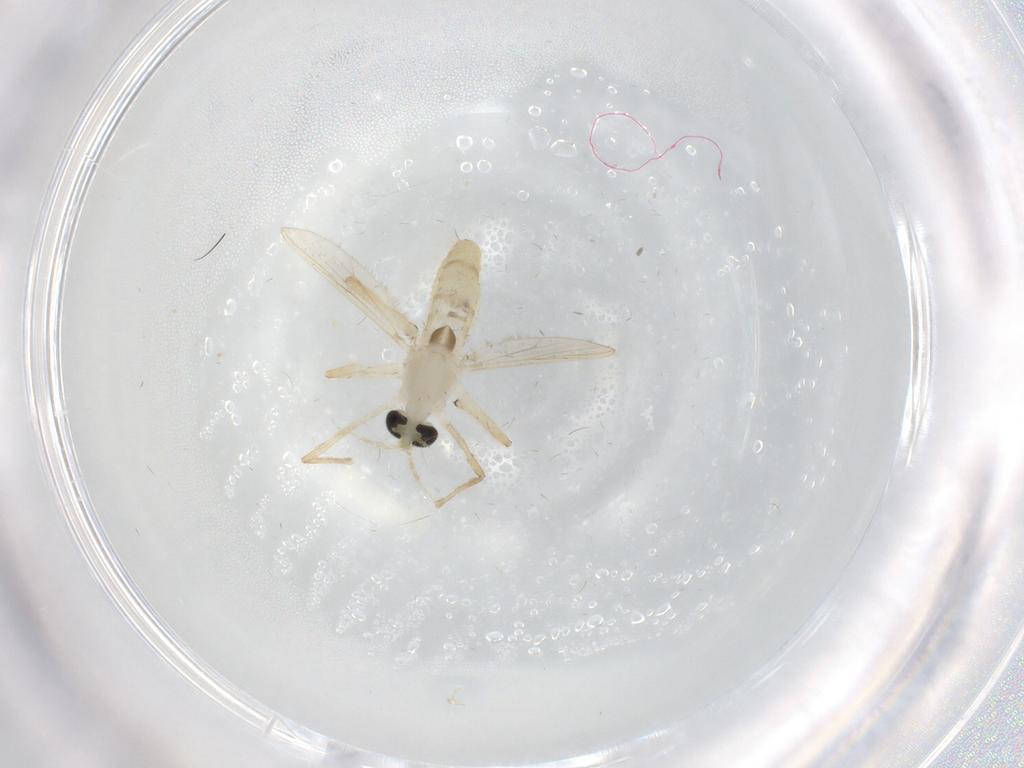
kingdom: Animalia
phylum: Arthropoda
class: Insecta
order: Diptera
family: Chironomidae
